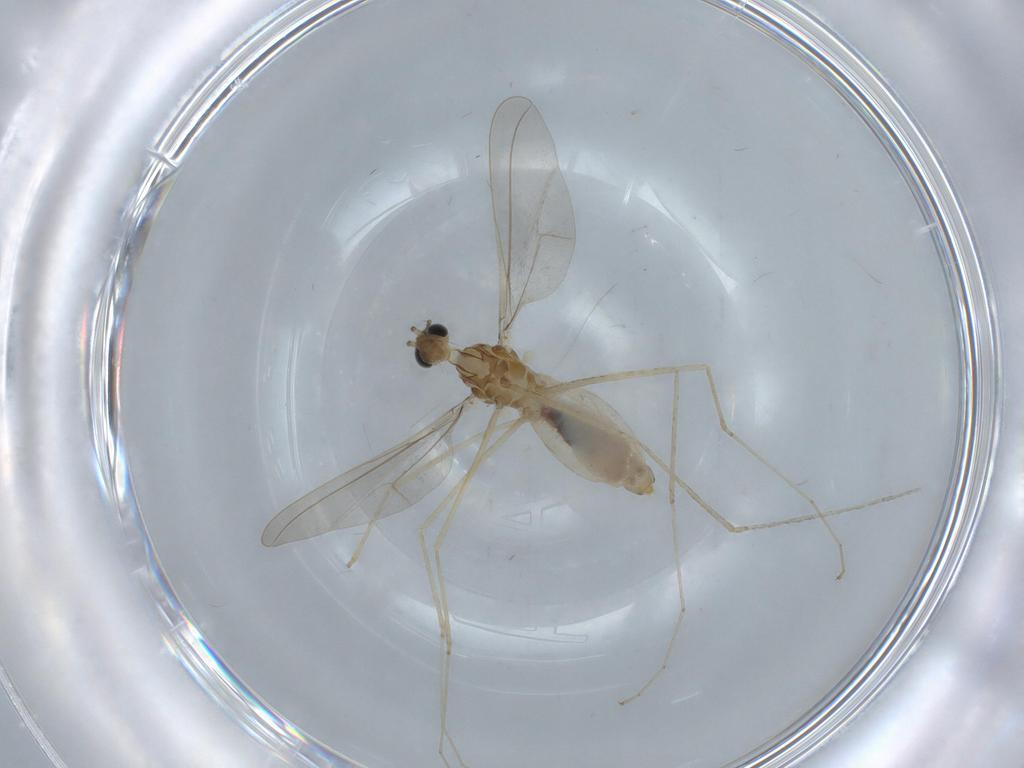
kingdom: Animalia
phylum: Arthropoda
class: Insecta
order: Diptera
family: Cecidomyiidae
